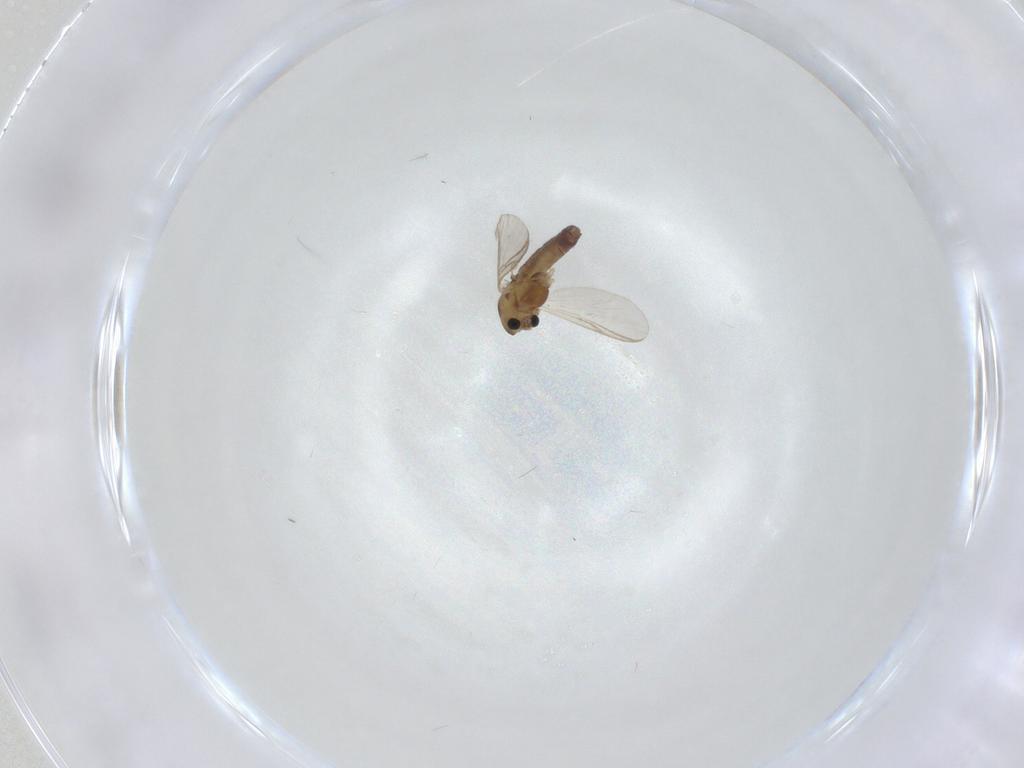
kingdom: Animalia
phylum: Arthropoda
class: Insecta
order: Diptera
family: Chironomidae
